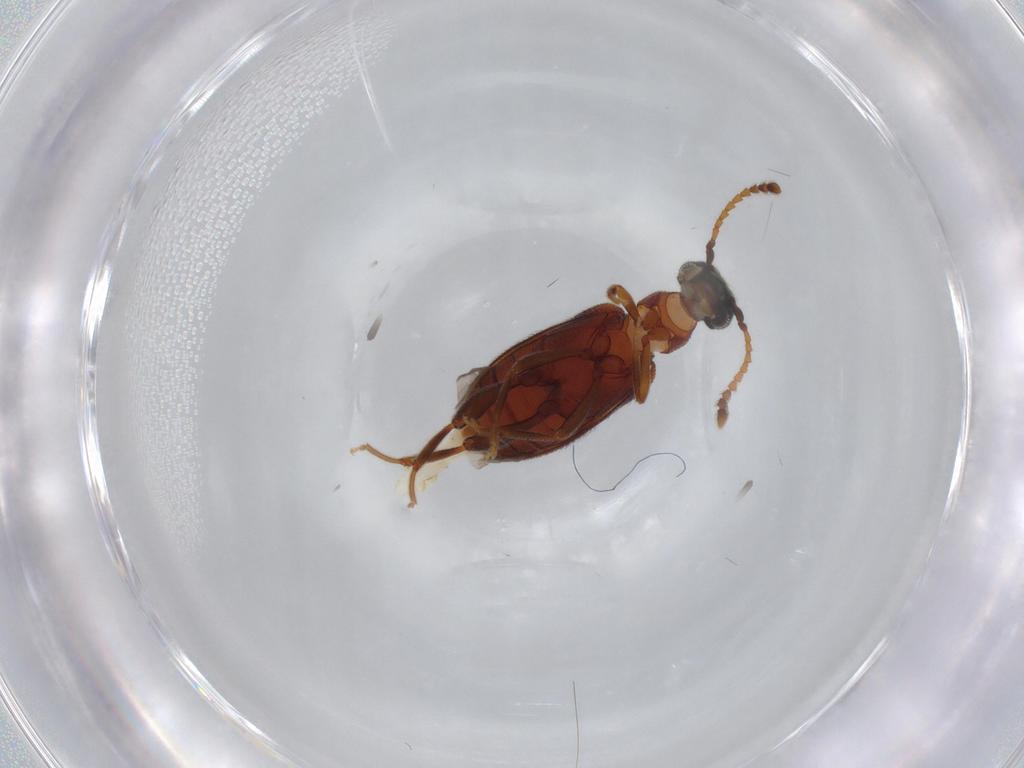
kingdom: Animalia
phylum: Arthropoda
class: Insecta
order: Coleoptera
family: Aderidae
